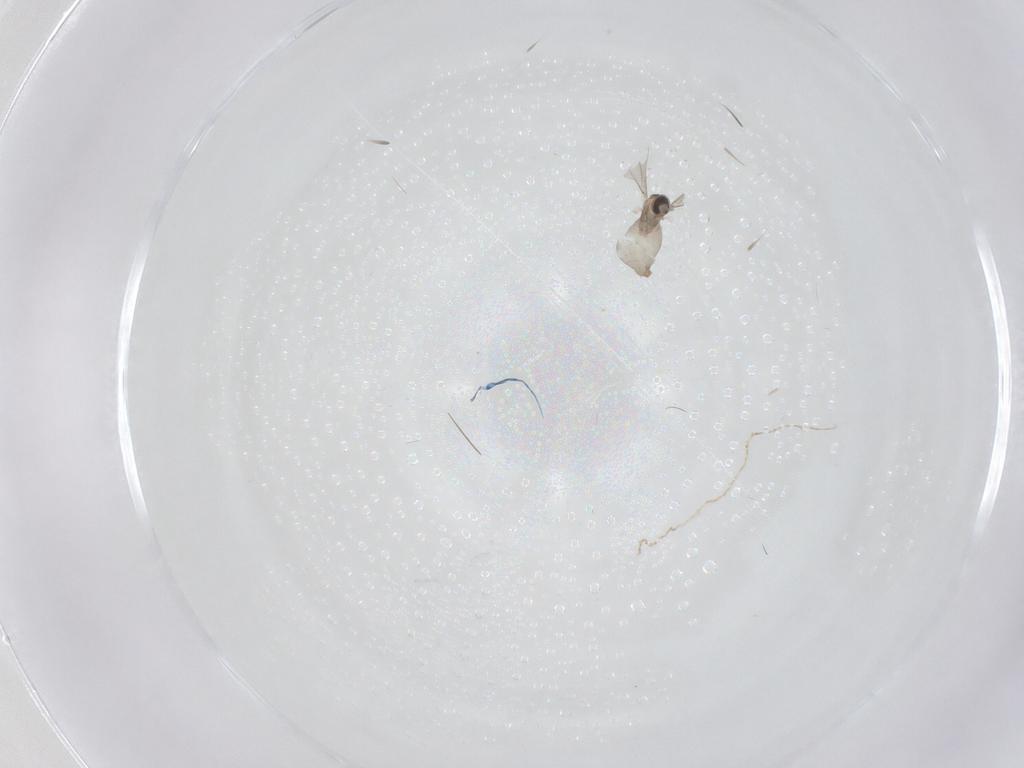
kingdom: Animalia
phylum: Arthropoda
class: Insecta
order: Diptera
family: Cecidomyiidae
